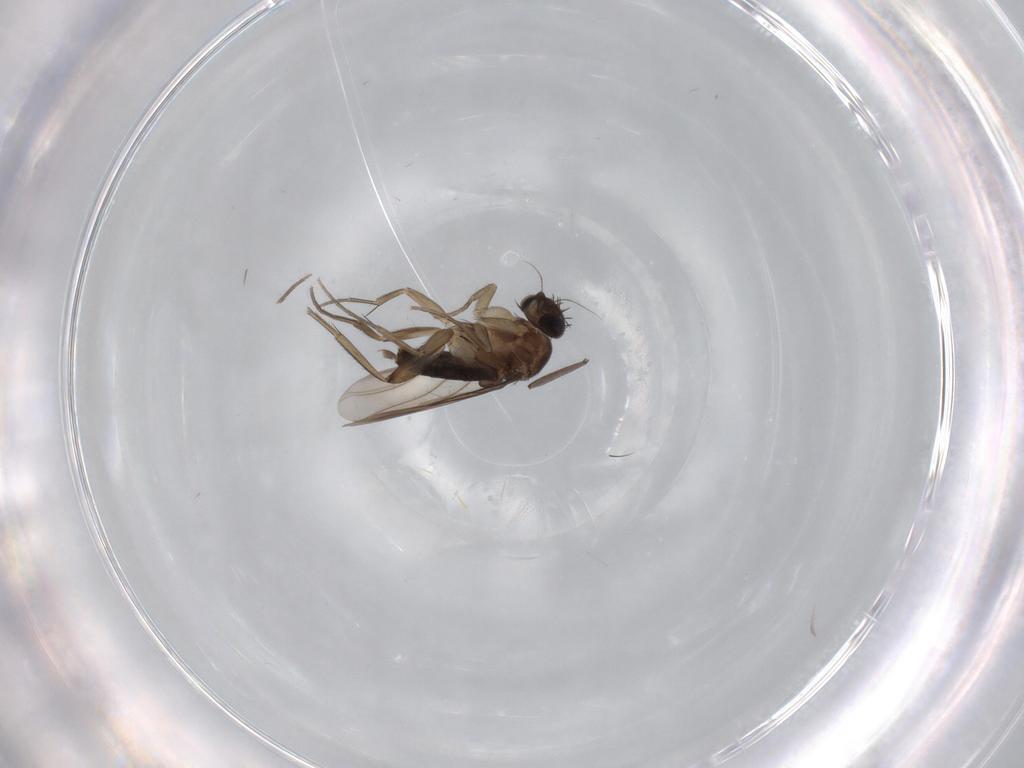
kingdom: Animalia
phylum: Arthropoda
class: Insecta
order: Diptera
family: Sciaridae
